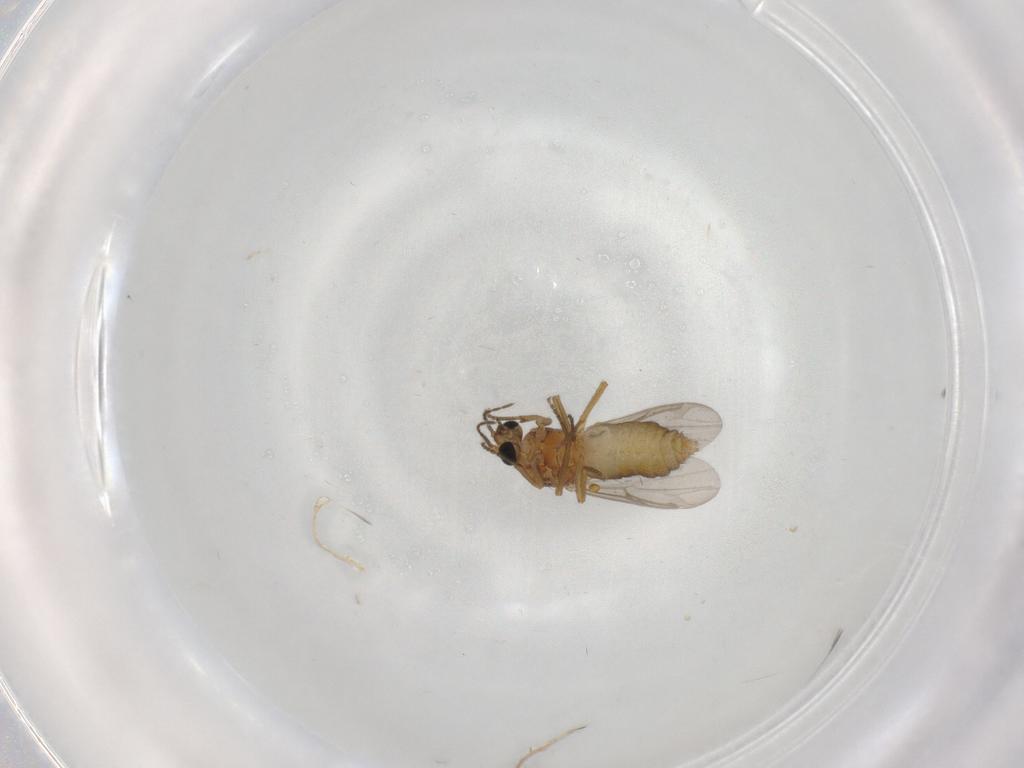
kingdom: Animalia
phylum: Arthropoda
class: Insecta
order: Diptera
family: Cecidomyiidae
